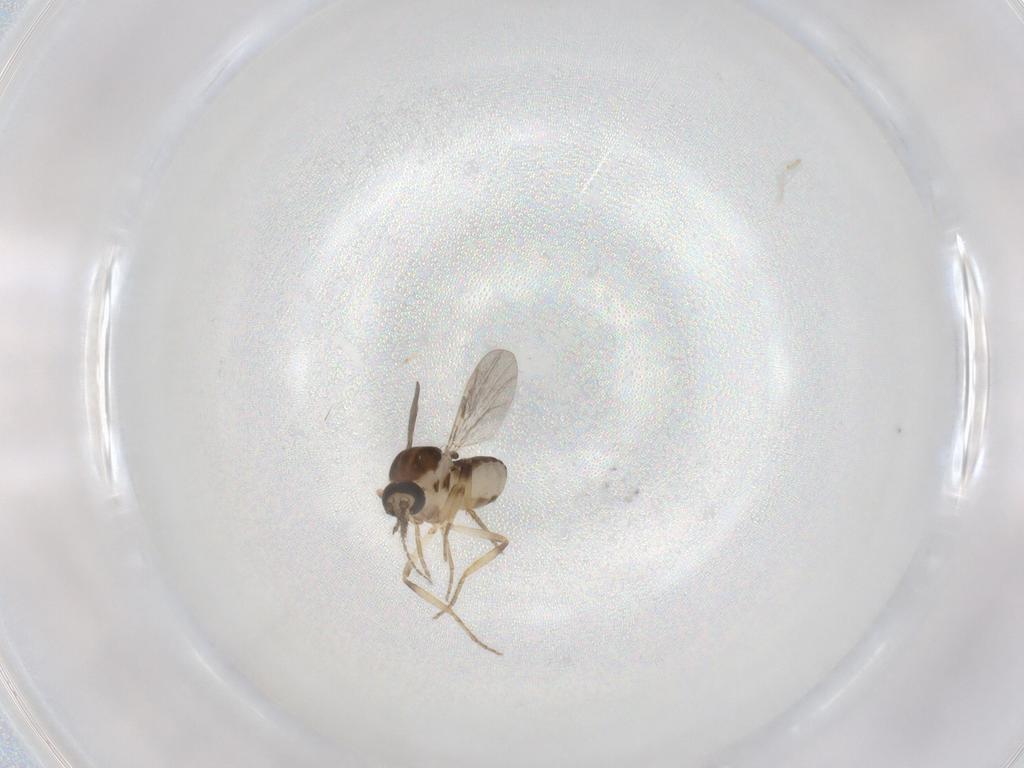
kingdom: Animalia
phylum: Arthropoda
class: Insecta
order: Diptera
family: Ceratopogonidae
